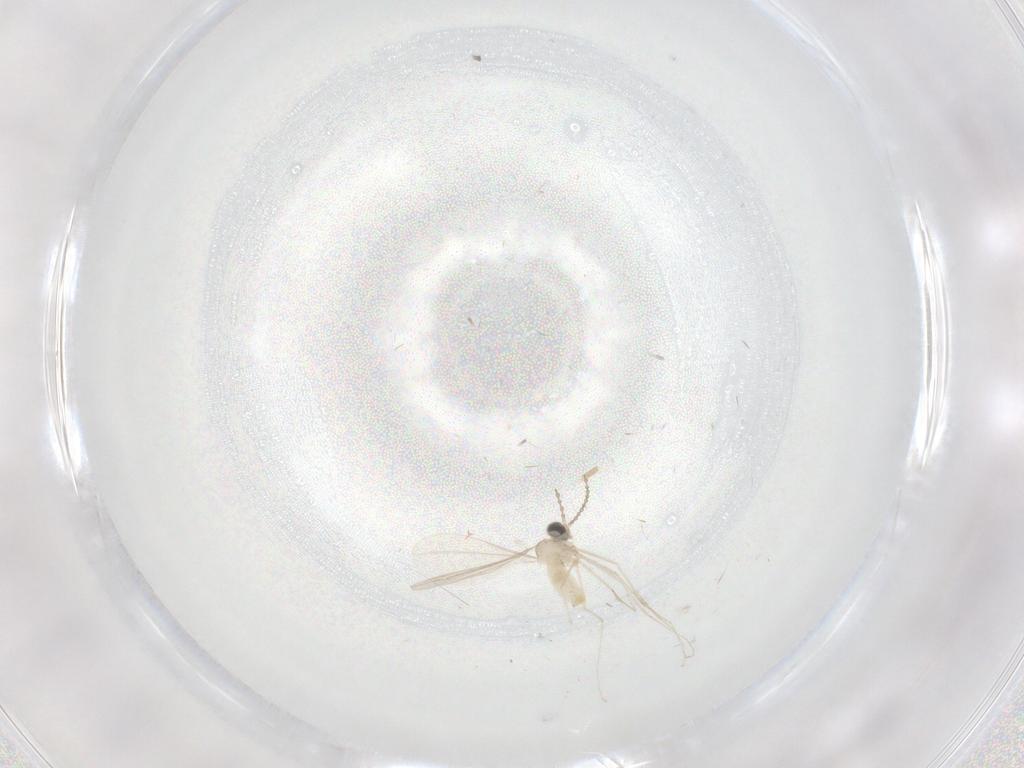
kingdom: Animalia
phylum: Arthropoda
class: Insecta
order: Diptera
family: Psychodidae
